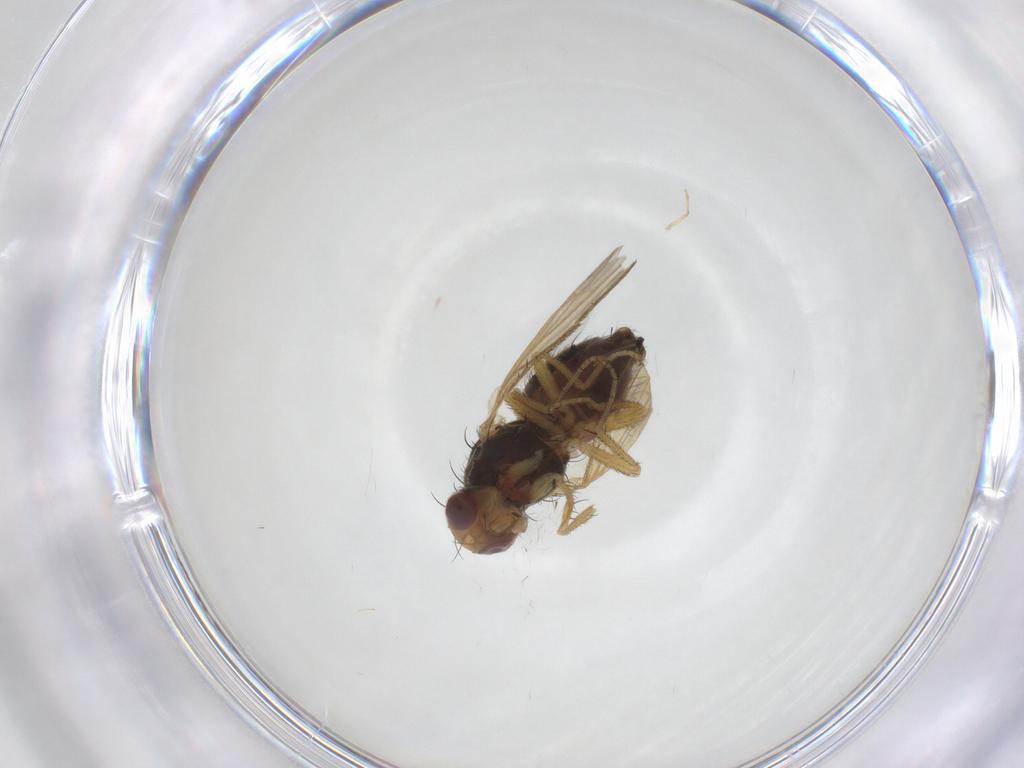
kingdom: Animalia
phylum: Arthropoda
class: Insecta
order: Diptera
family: Heleomyzidae
